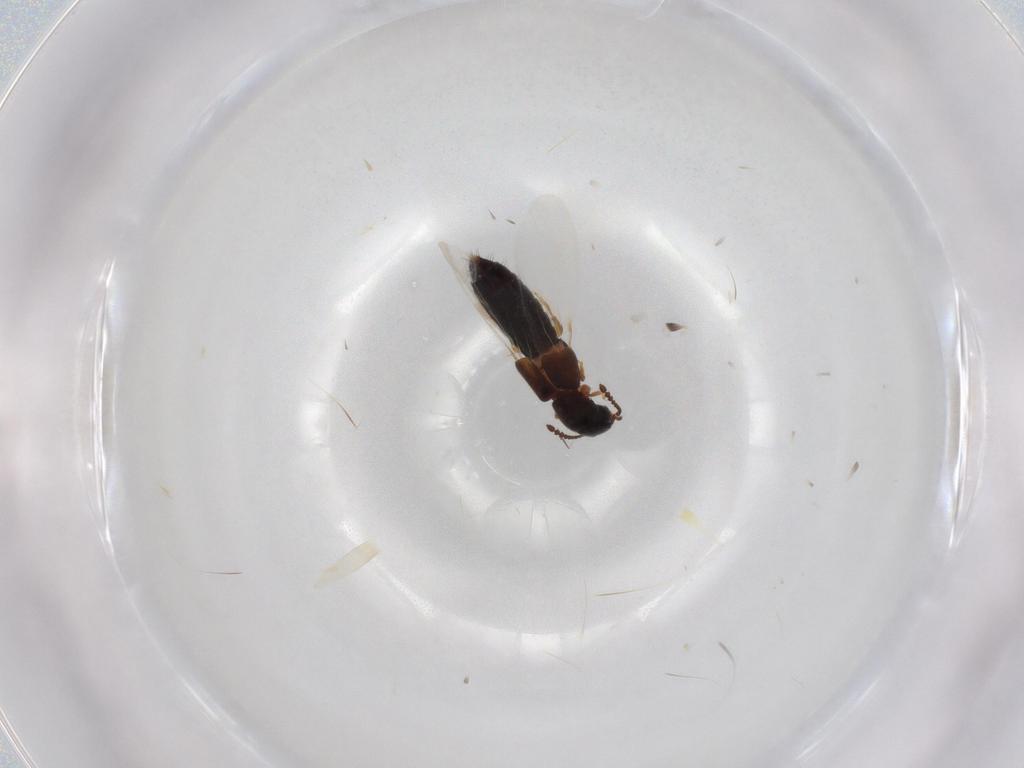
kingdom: Animalia
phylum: Arthropoda
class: Insecta
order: Coleoptera
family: Staphylinidae
